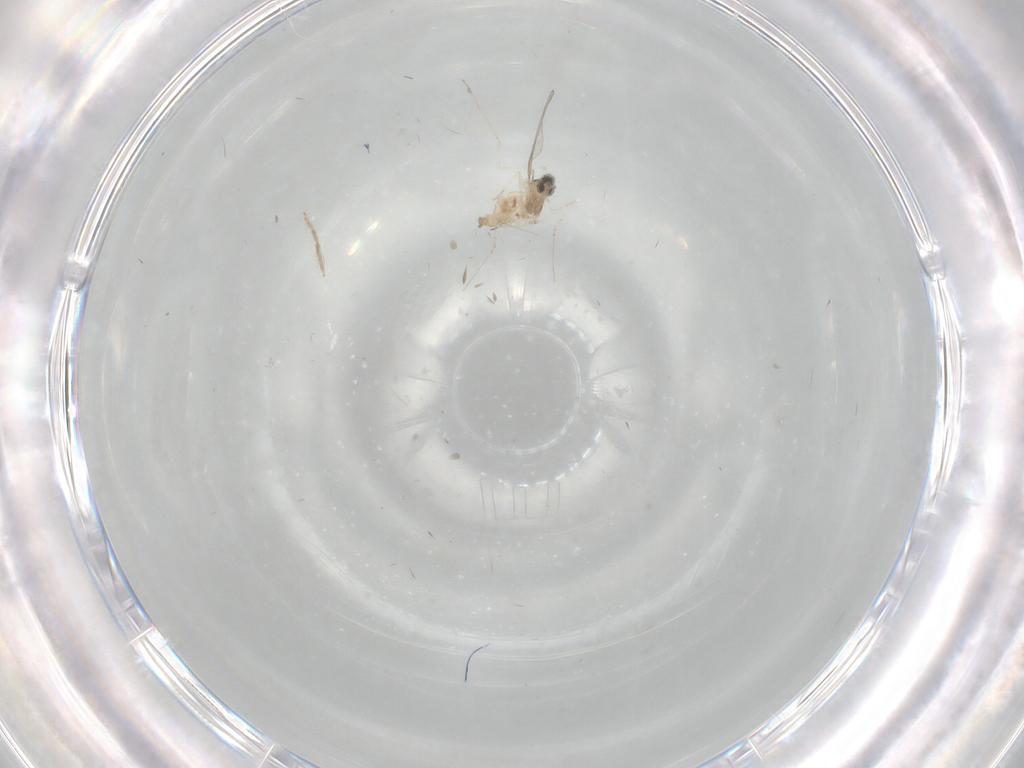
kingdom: Animalia
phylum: Arthropoda
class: Insecta
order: Diptera
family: Cecidomyiidae
